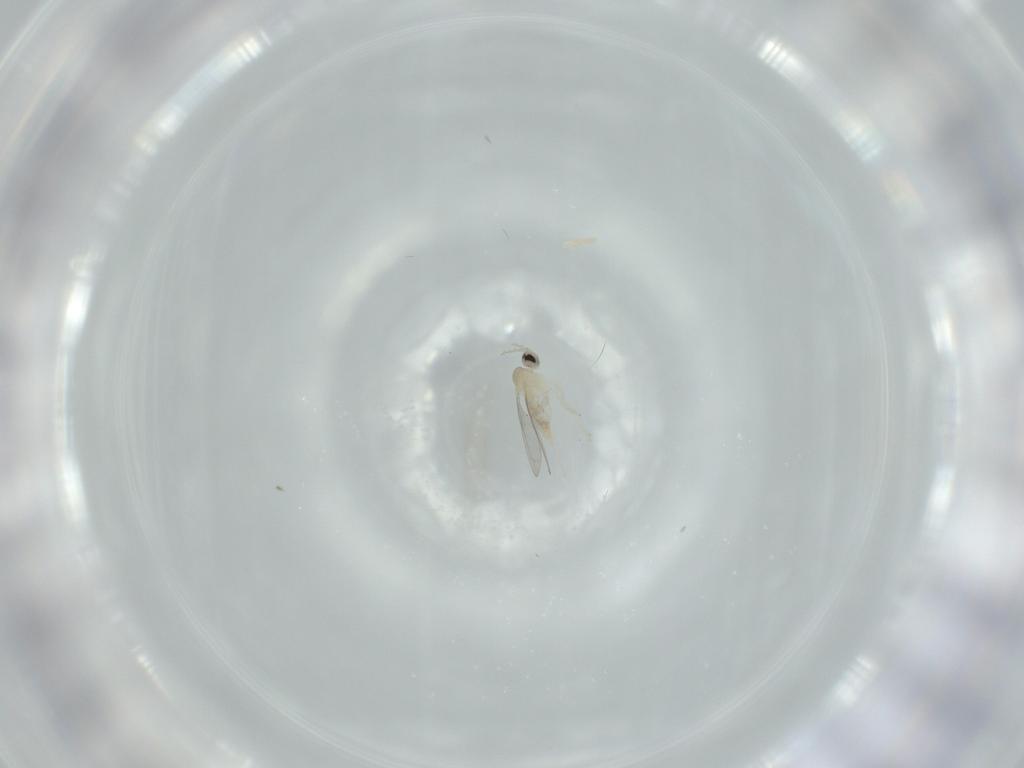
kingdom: Animalia
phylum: Arthropoda
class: Insecta
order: Diptera
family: Cecidomyiidae
